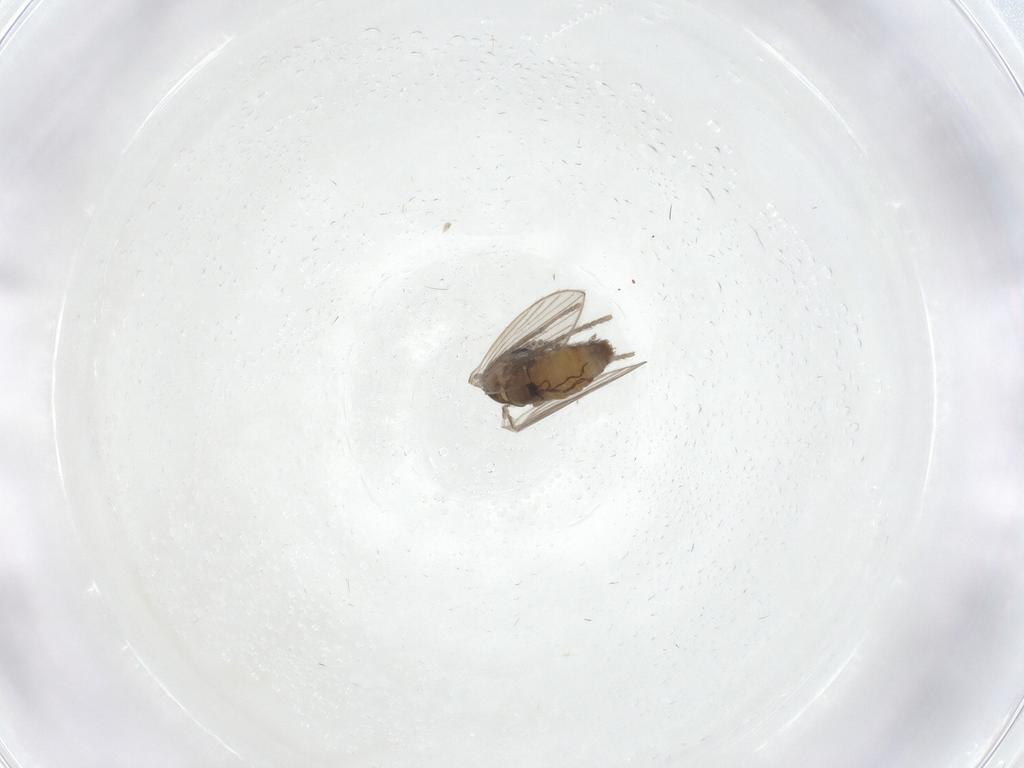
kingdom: Animalia
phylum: Arthropoda
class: Insecta
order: Diptera
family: Psychodidae
